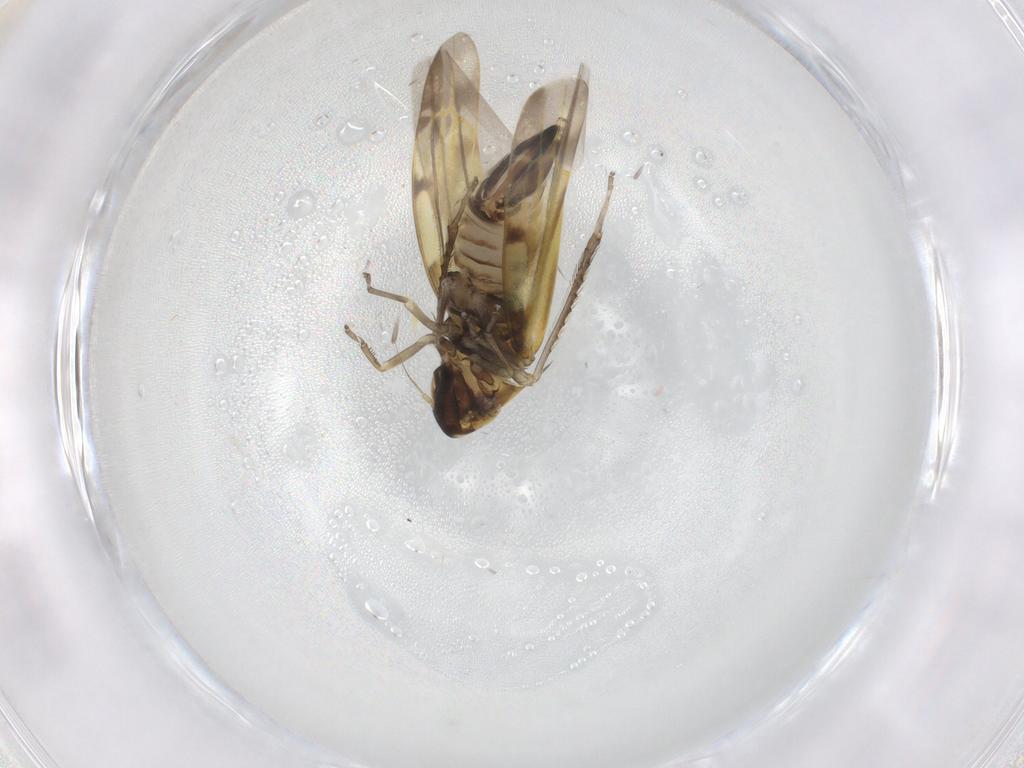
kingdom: Animalia
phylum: Arthropoda
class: Insecta
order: Hemiptera
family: Cicadellidae
